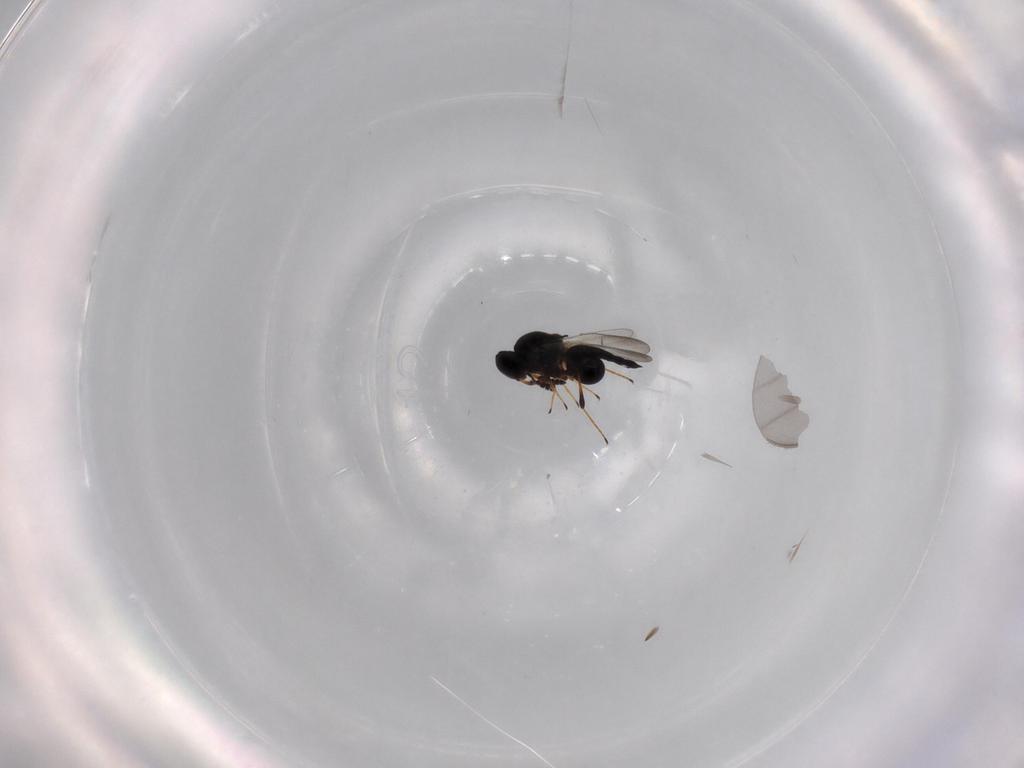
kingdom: Animalia
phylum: Arthropoda
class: Insecta
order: Hymenoptera
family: Platygastridae
